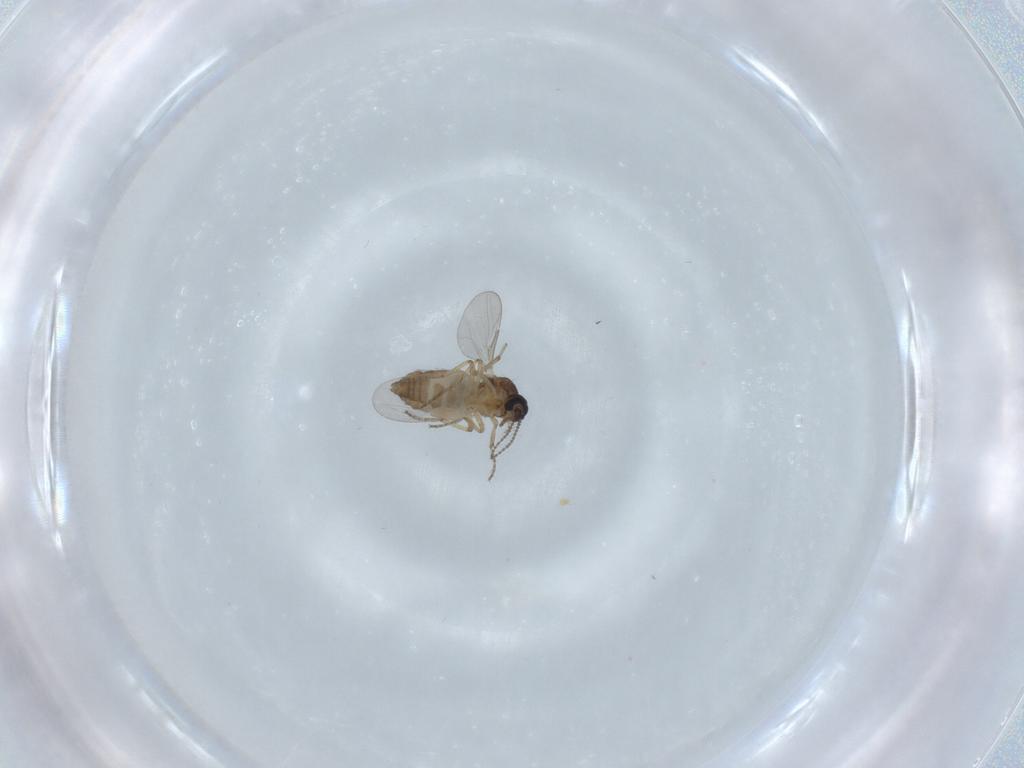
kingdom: Animalia
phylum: Arthropoda
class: Insecta
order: Diptera
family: Ceratopogonidae
